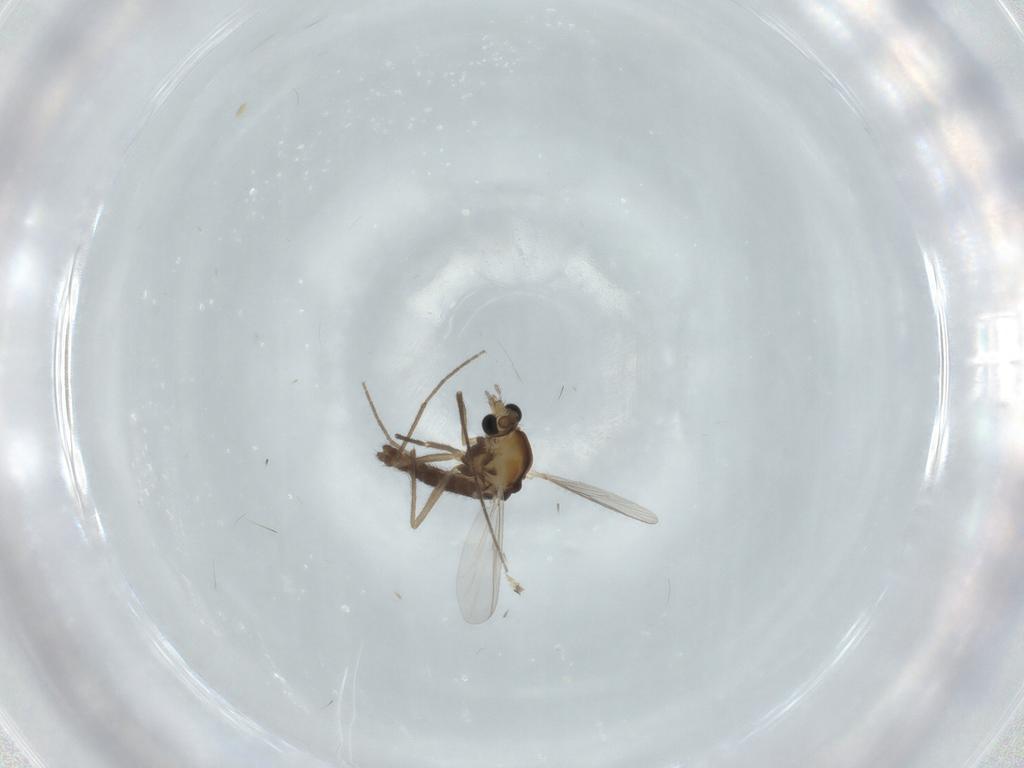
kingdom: Animalia
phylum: Arthropoda
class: Insecta
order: Diptera
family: Chironomidae
